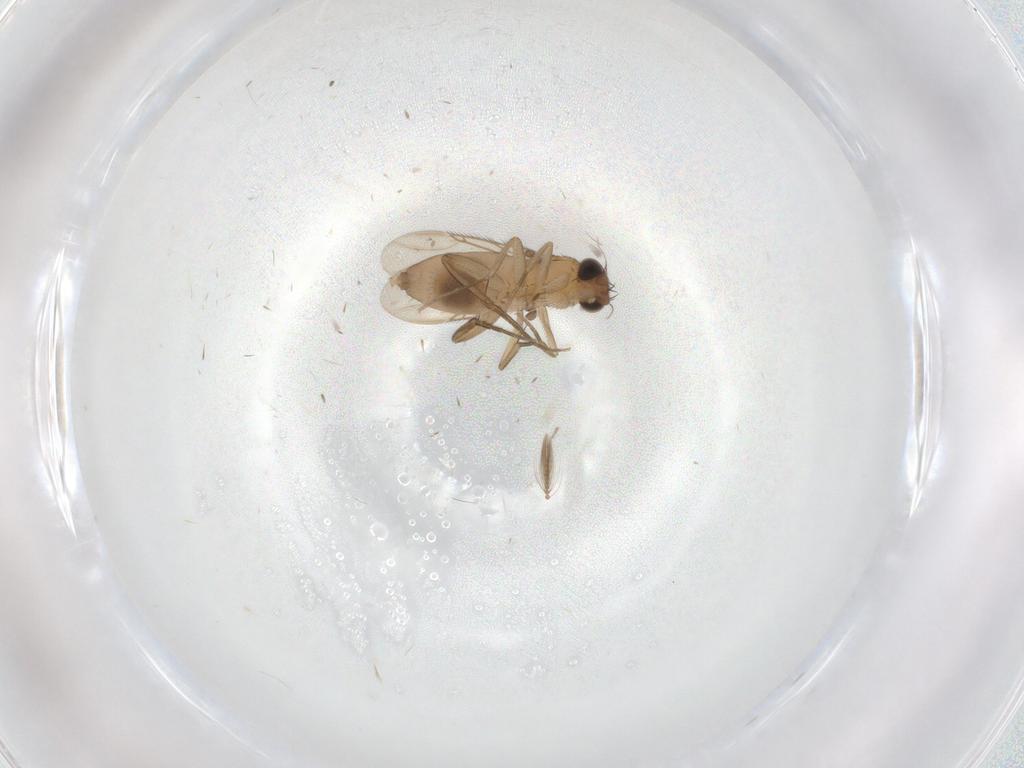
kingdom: Animalia
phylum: Arthropoda
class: Insecta
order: Diptera
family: Phoridae
